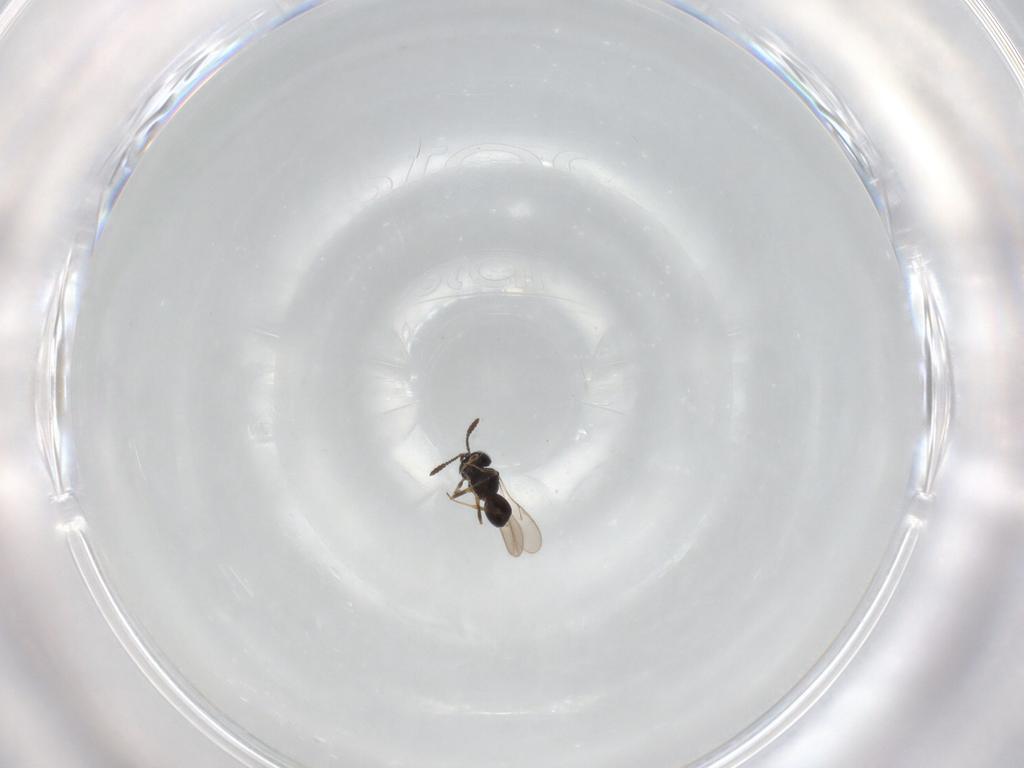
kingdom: Animalia
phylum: Arthropoda
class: Insecta
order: Hymenoptera
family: Scelionidae
